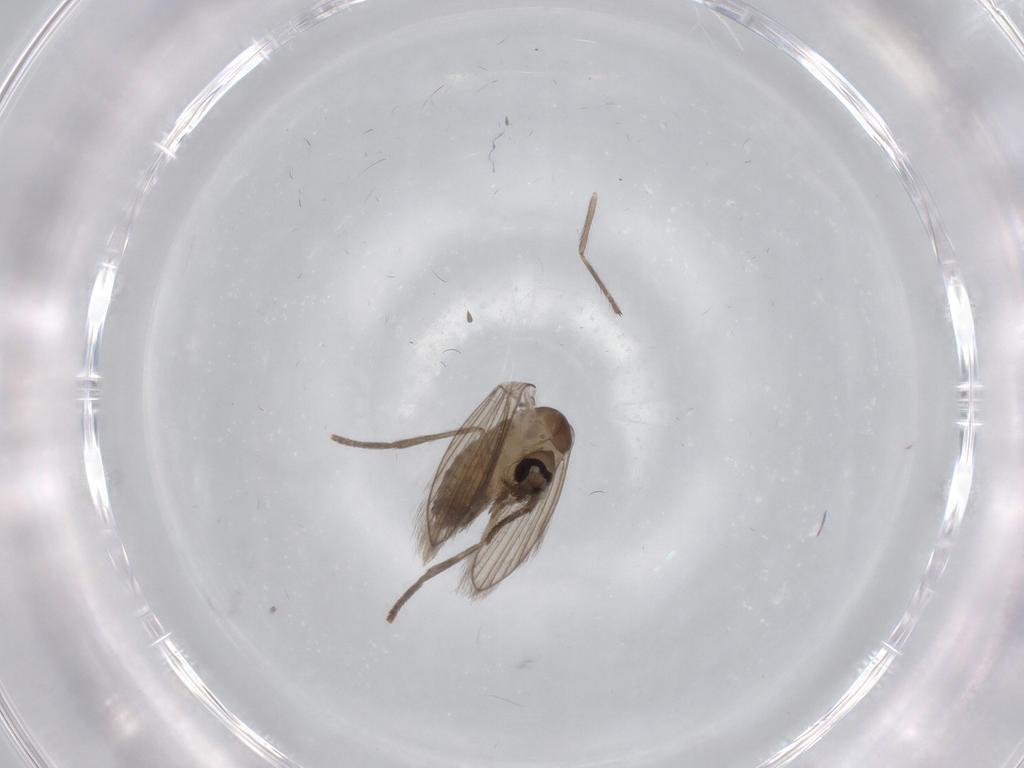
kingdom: Animalia
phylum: Arthropoda
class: Insecta
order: Diptera
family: Psychodidae
